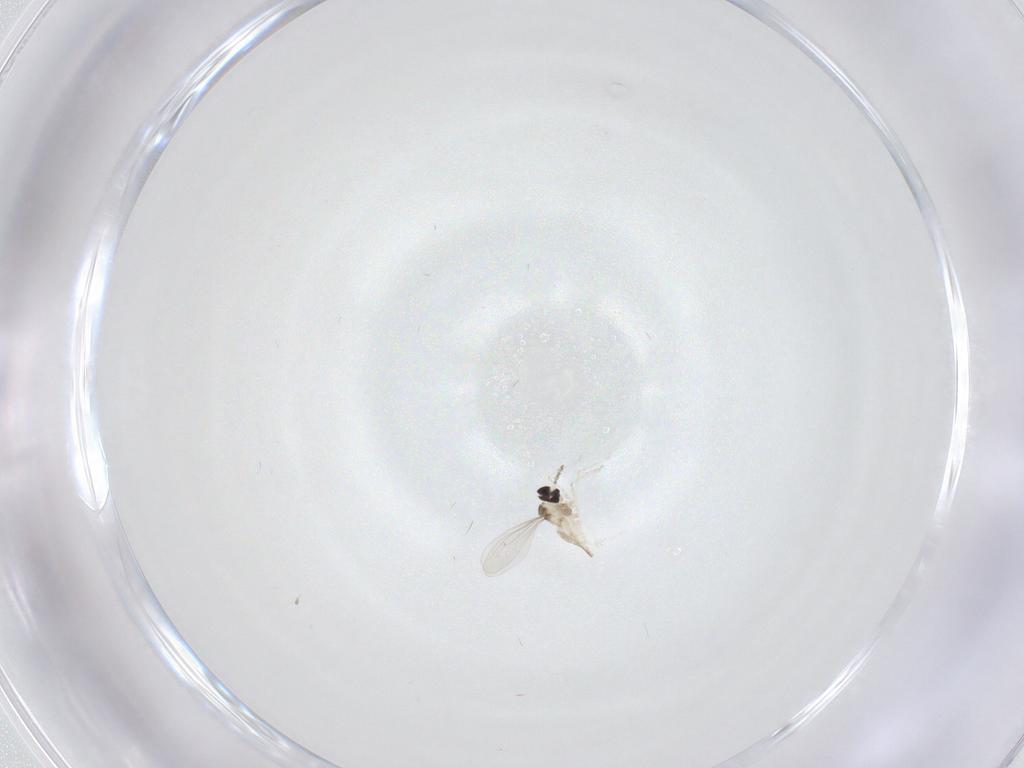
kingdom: Animalia
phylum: Arthropoda
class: Insecta
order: Diptera
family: Cecidomyiidae
